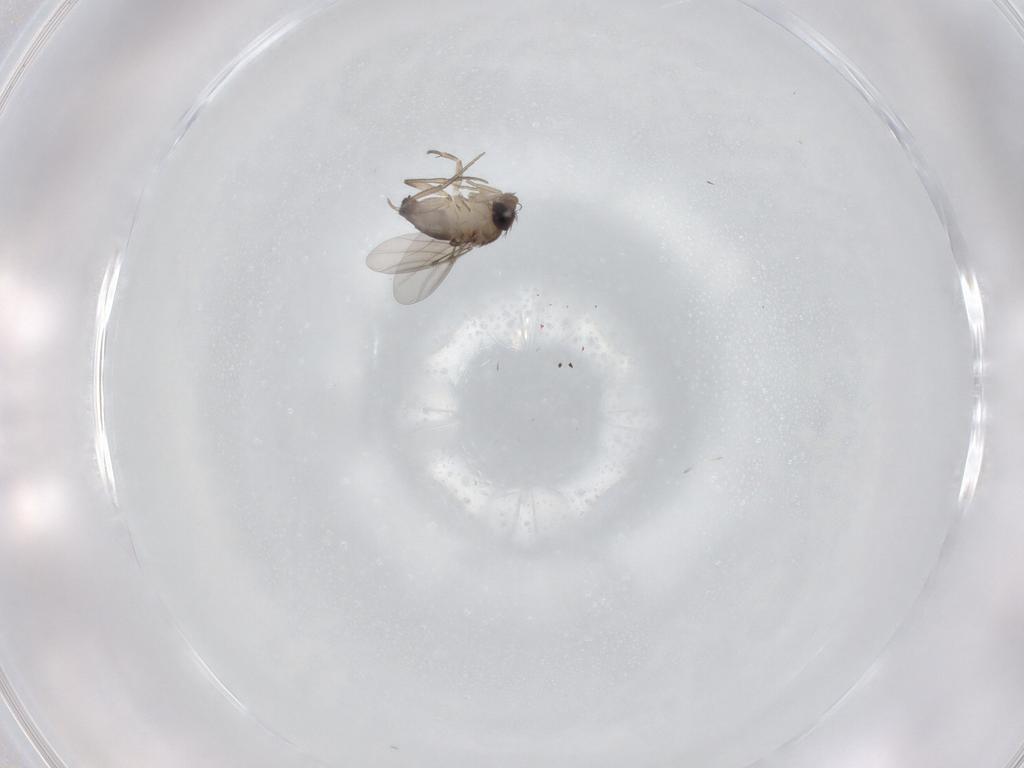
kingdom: Animalia
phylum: Arthropoda
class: Insecta
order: Diptera
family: Phoridae
